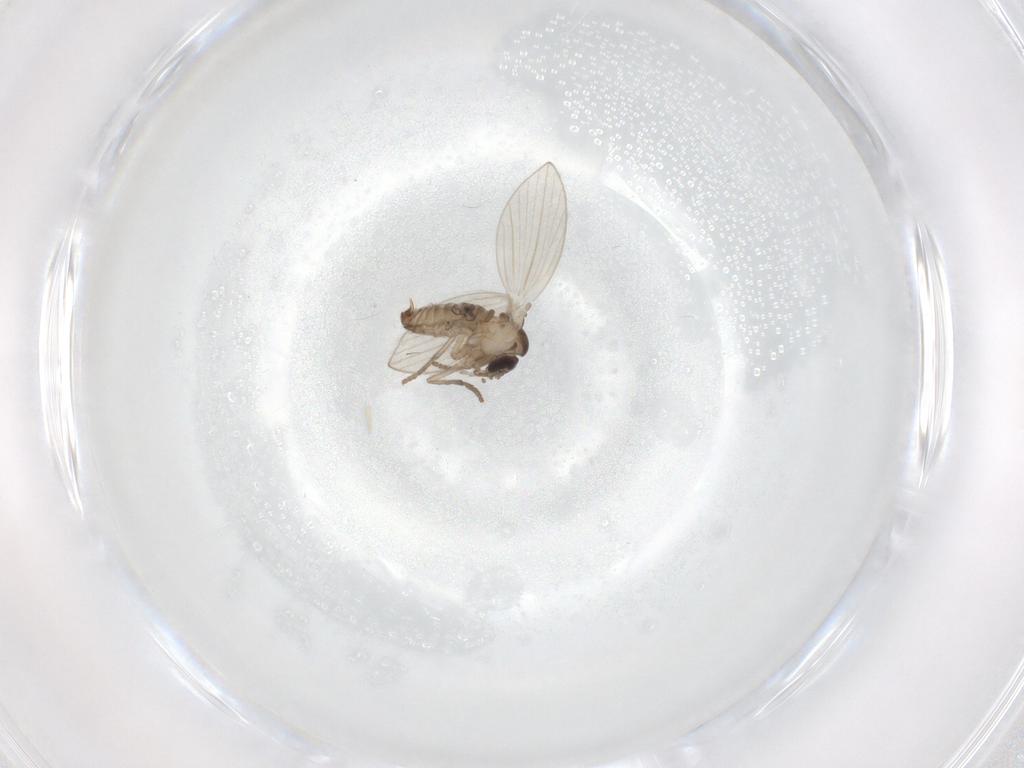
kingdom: Animalia
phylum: Arthropoda
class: Insecta
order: Diptera
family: Chironomidae
